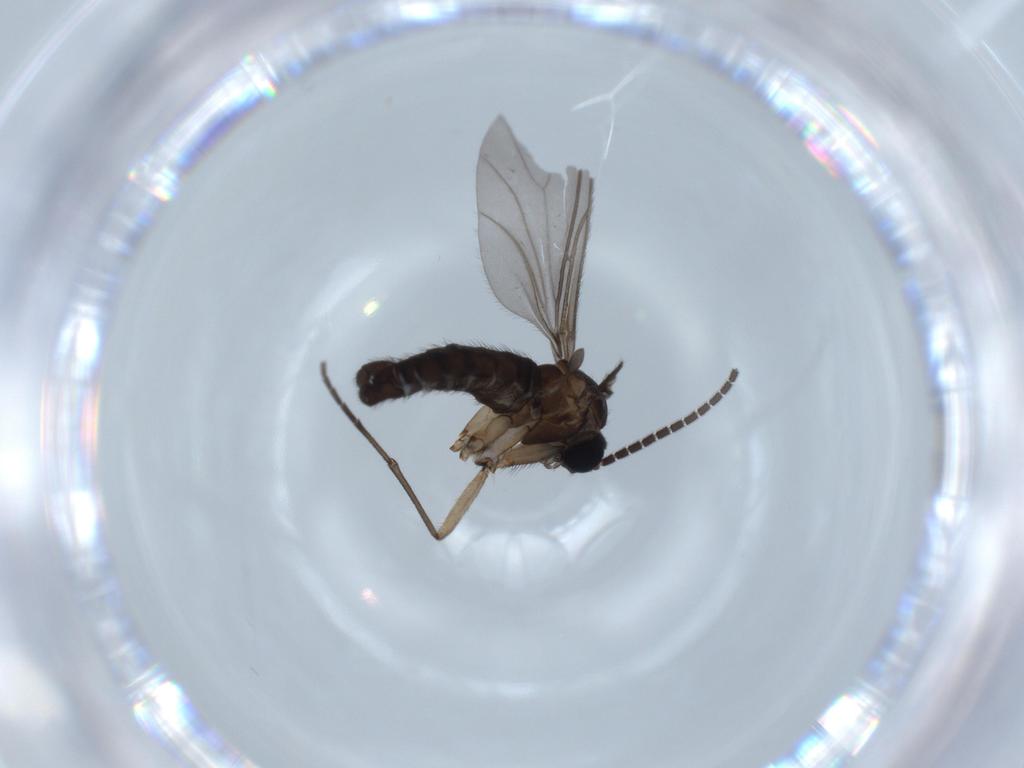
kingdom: Animalia
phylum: Arthropoda
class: Insecta
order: Diptera
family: Sciaridae
